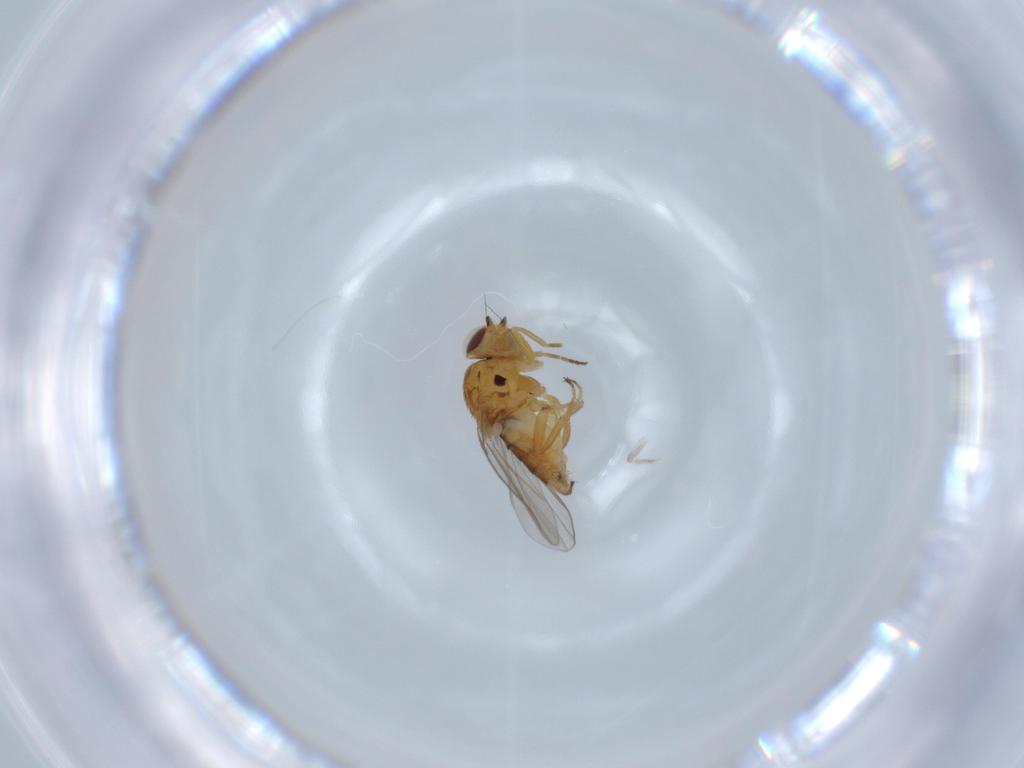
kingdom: Animalia
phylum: Arthropoda
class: Insecta
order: Diptera
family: Chloropidae
